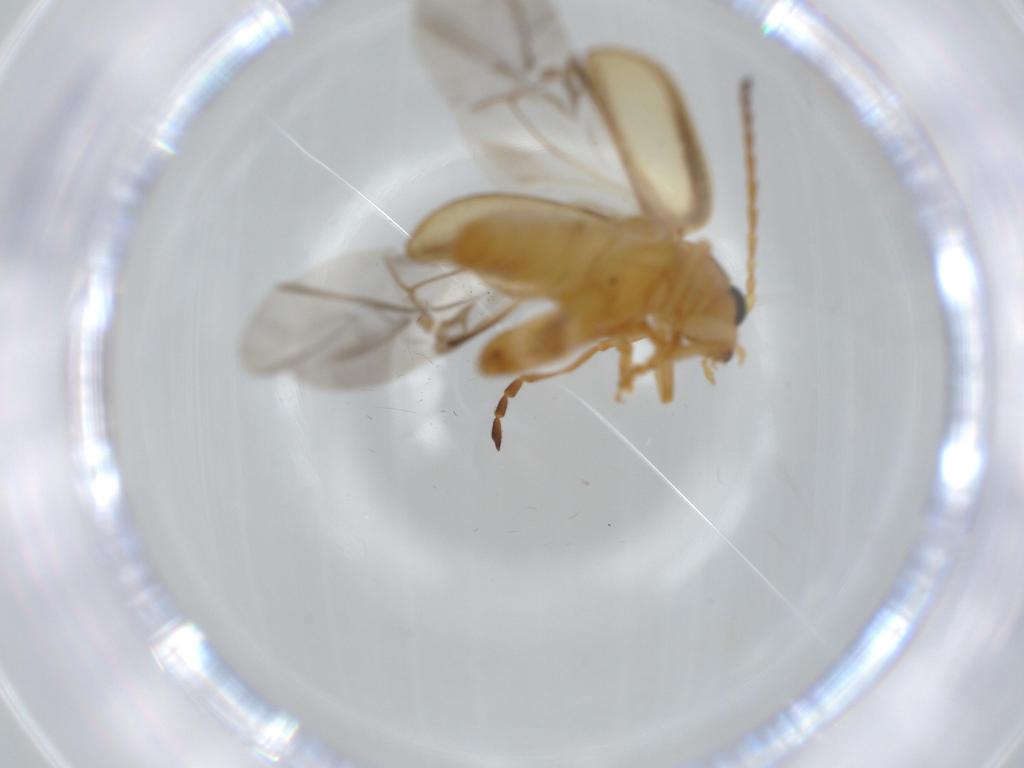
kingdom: Animalia
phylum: Arthropoda
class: Insecta
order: Coleoptera
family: Chrysomelidae
